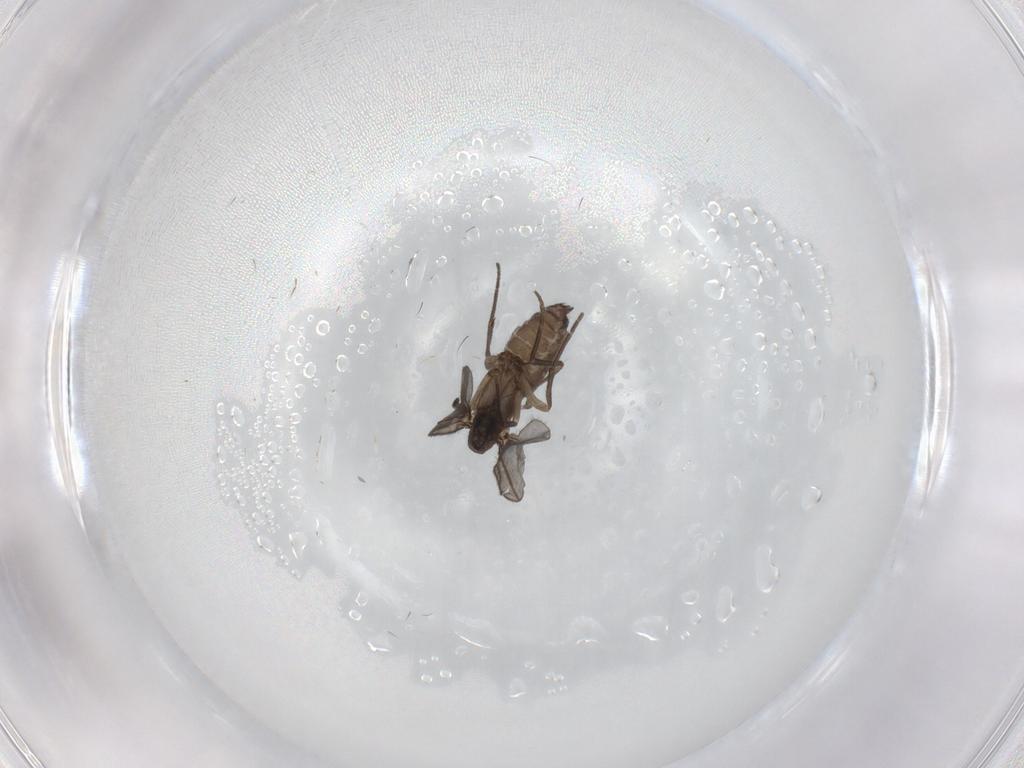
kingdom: Animalia
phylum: Arthropoda
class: Insecta
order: Diptera
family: Sciaridae
